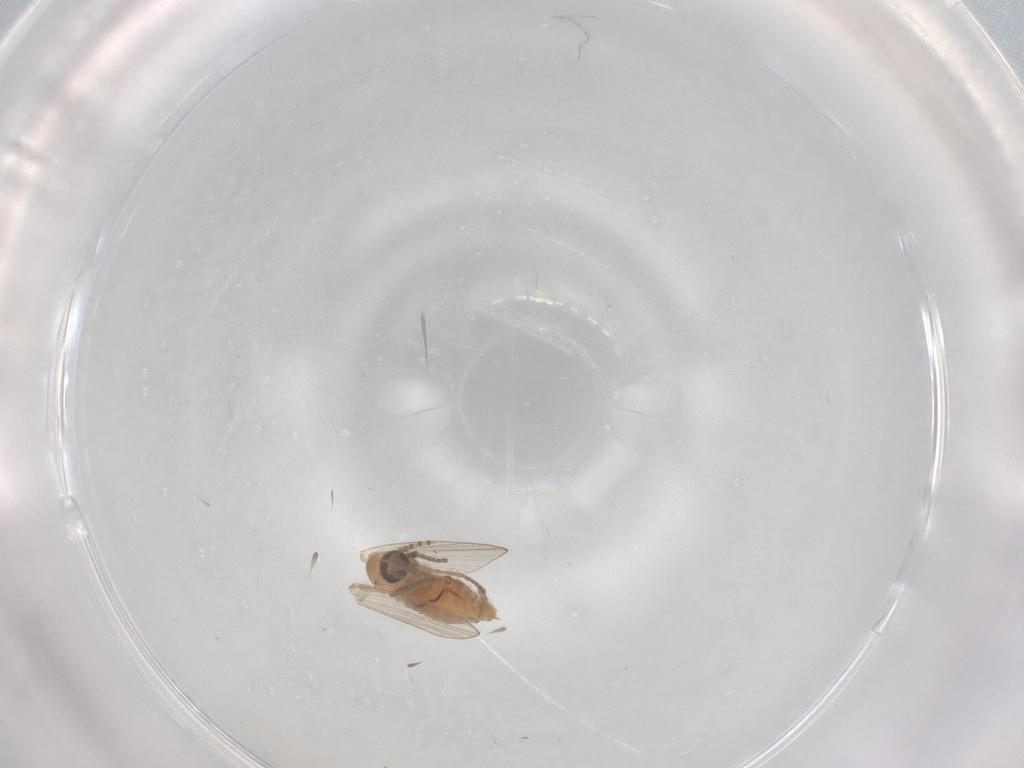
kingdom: Animalia
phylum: Arthropoda
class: Insecta
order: Diptera
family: Psychodidae
